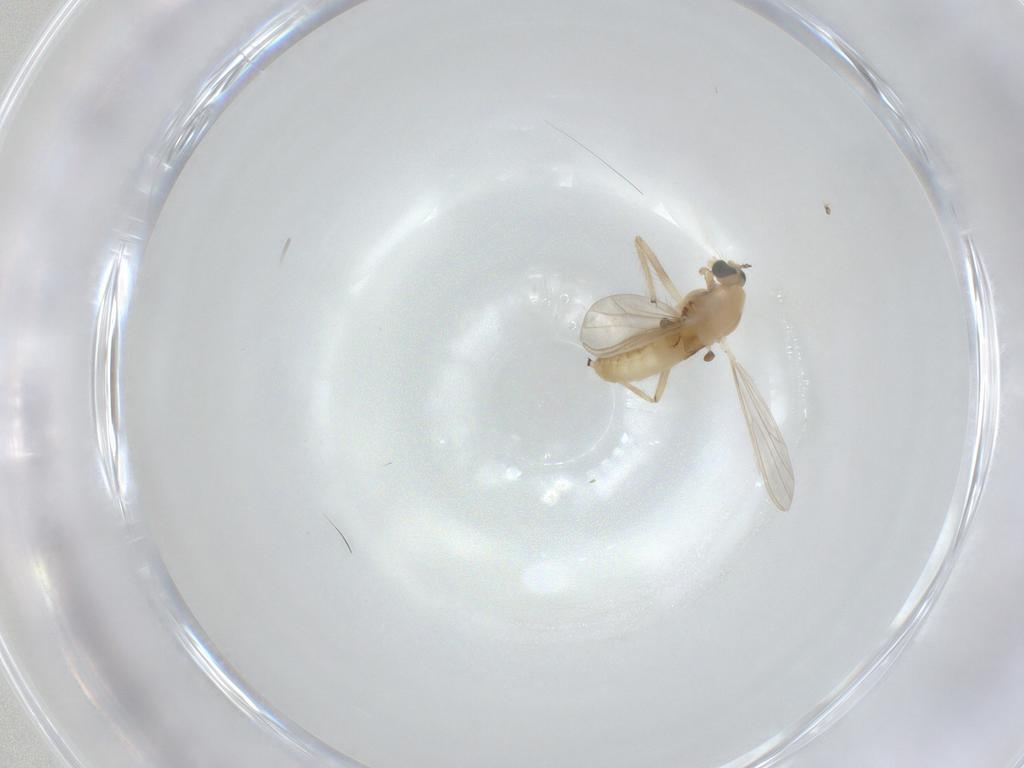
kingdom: Animalia
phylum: Arthropoda
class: Insecta
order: Diptera
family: Chironomidae
